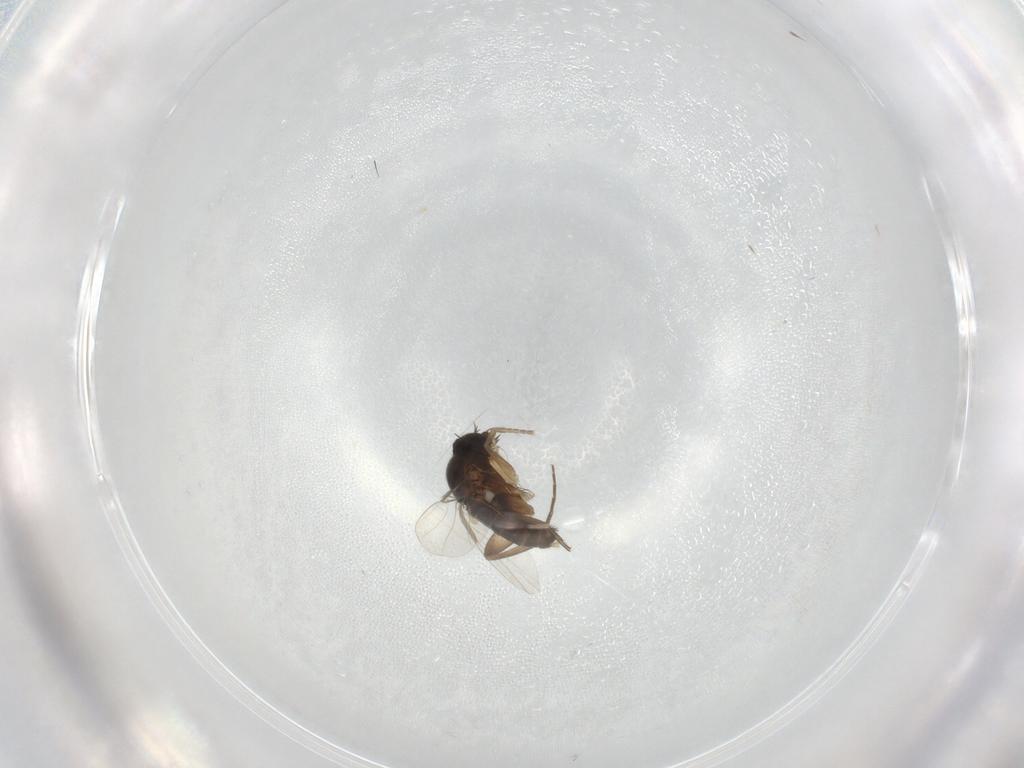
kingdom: Animalia
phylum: Arthropoda
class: Insecta
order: Diptera
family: Phoridae
